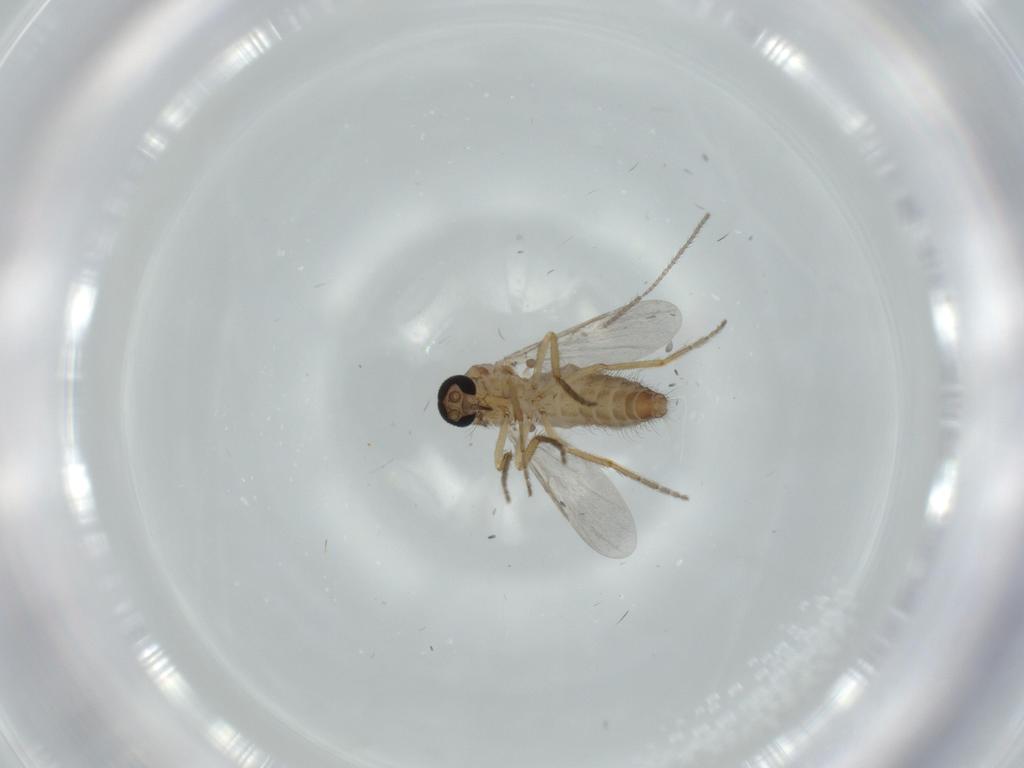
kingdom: Animalia
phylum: Arthropoda
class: Insecta
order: Diptera
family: Ceratopogonidae
